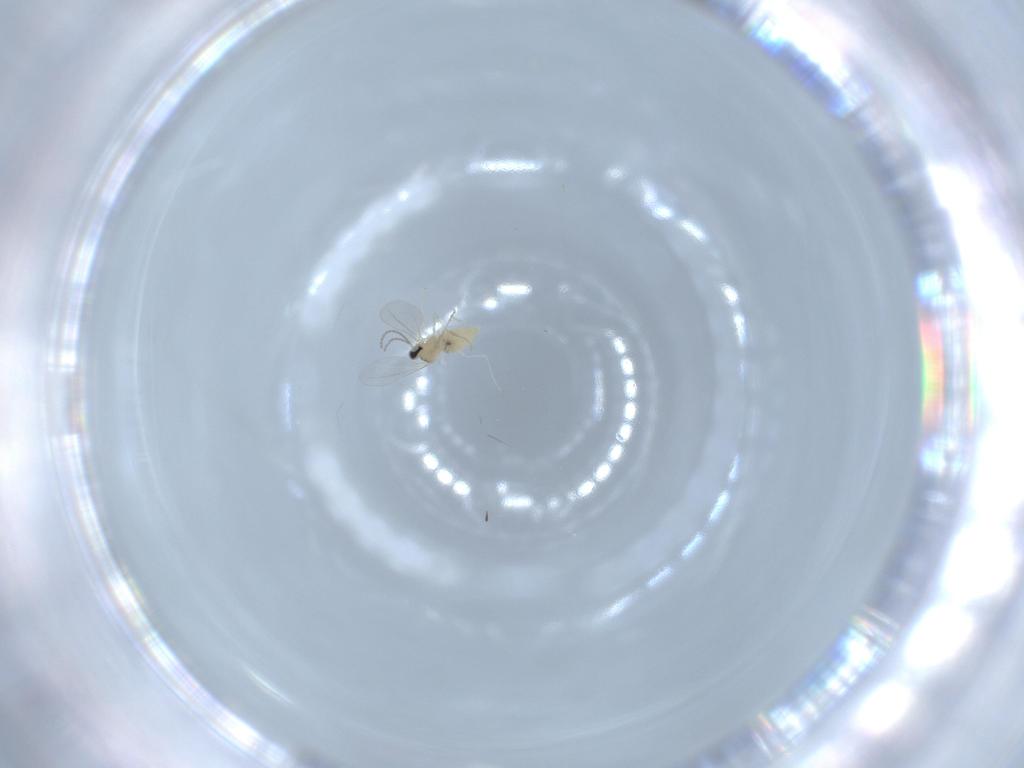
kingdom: Animalia
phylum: Arthropoda
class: Insecta
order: Diptera
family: Cecidomyiidae
